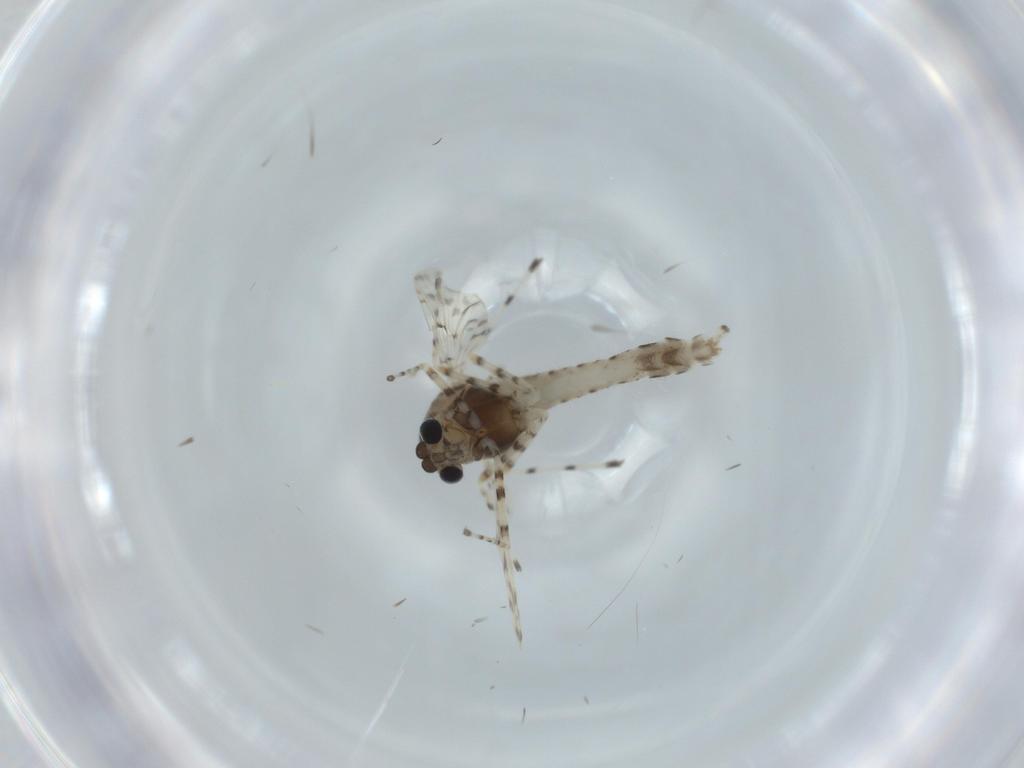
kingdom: Animalia
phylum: Arthropoda
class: Insecta
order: Diptera
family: Chironomidae
